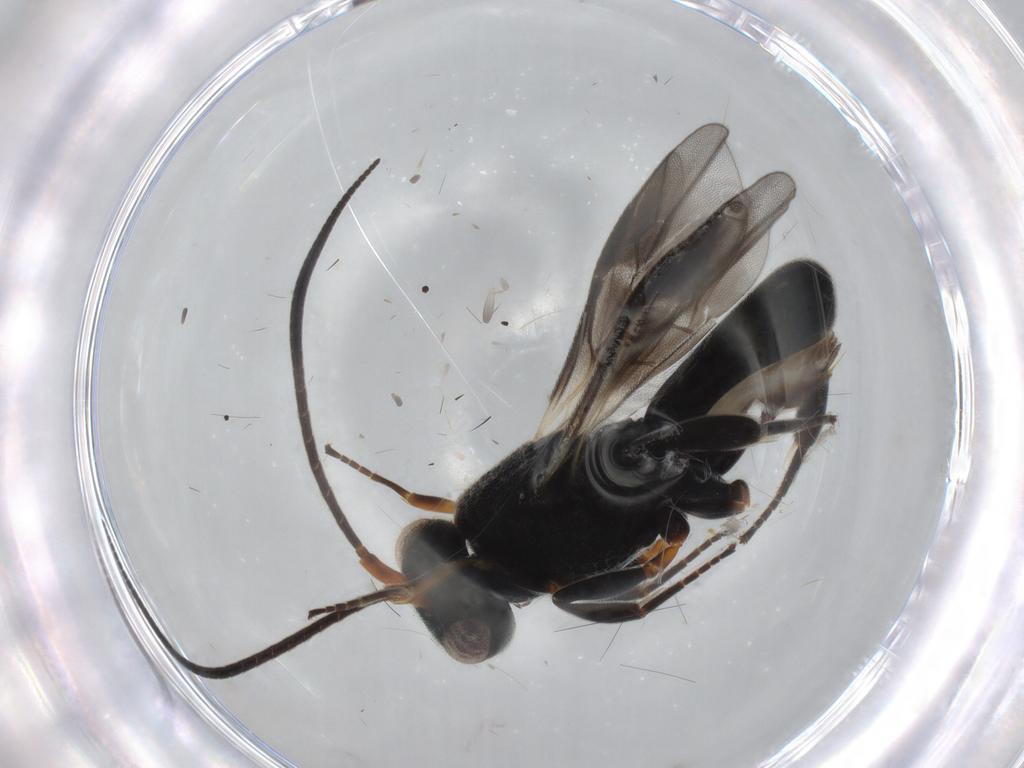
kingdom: Animalia
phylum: Arthropoda
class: Insecta
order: Hymenoptera
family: Braconidae
